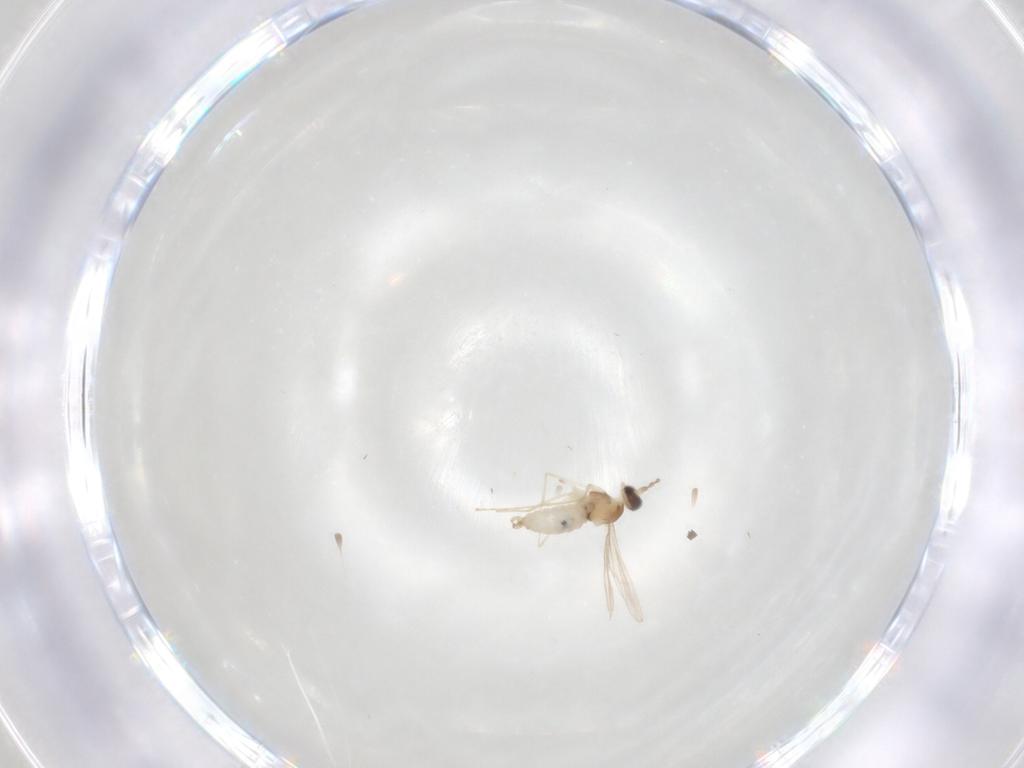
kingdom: Animalia
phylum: Arthropoda
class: Insecta
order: Diptera
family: Cecidomyiidae
